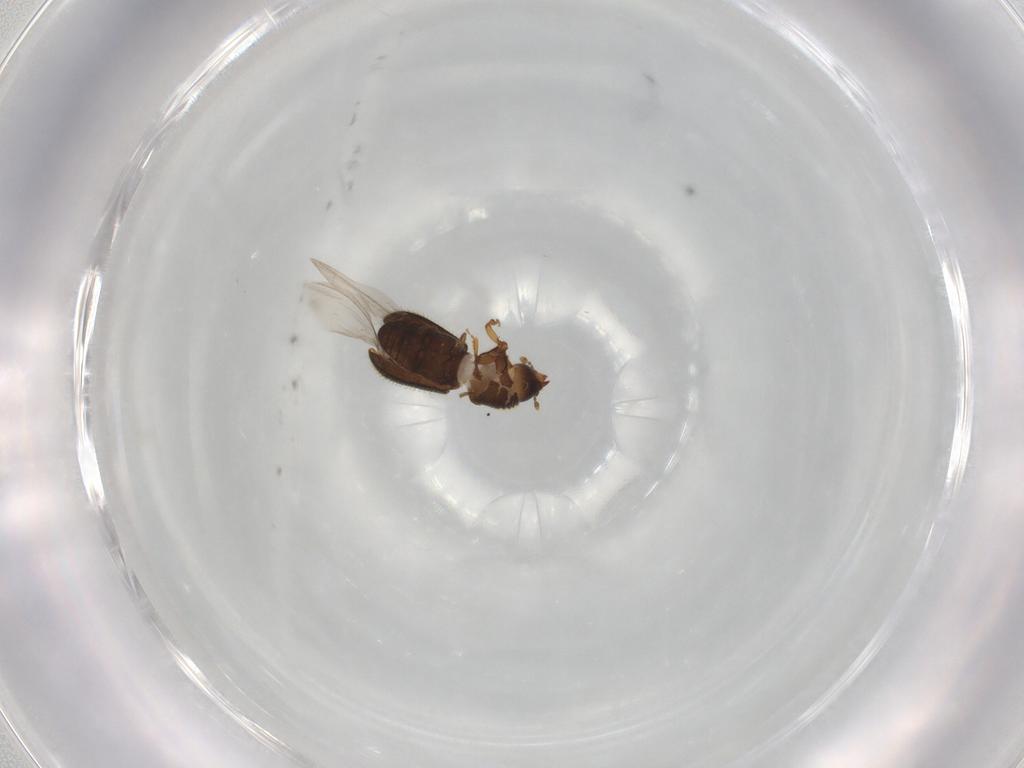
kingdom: Animalia
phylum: Arthropoda
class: Insecta
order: Coleoptera
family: Curculionidae
